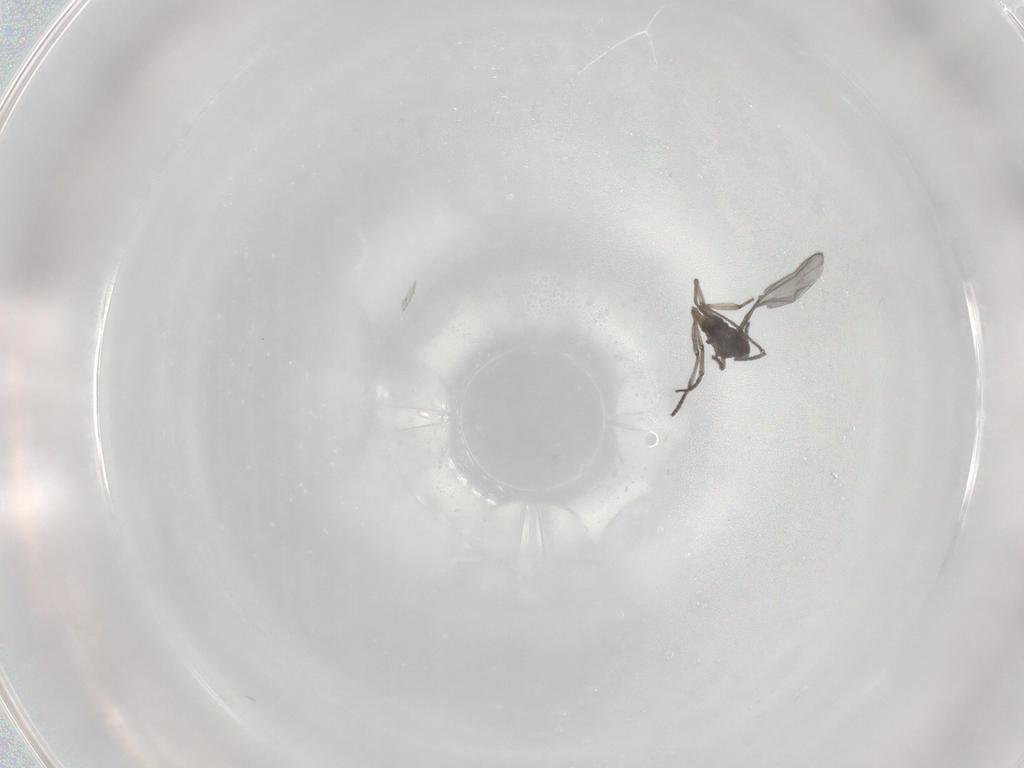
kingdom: Animalia
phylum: Arthropoda
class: Insecta
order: Diptera
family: Sciaridae
